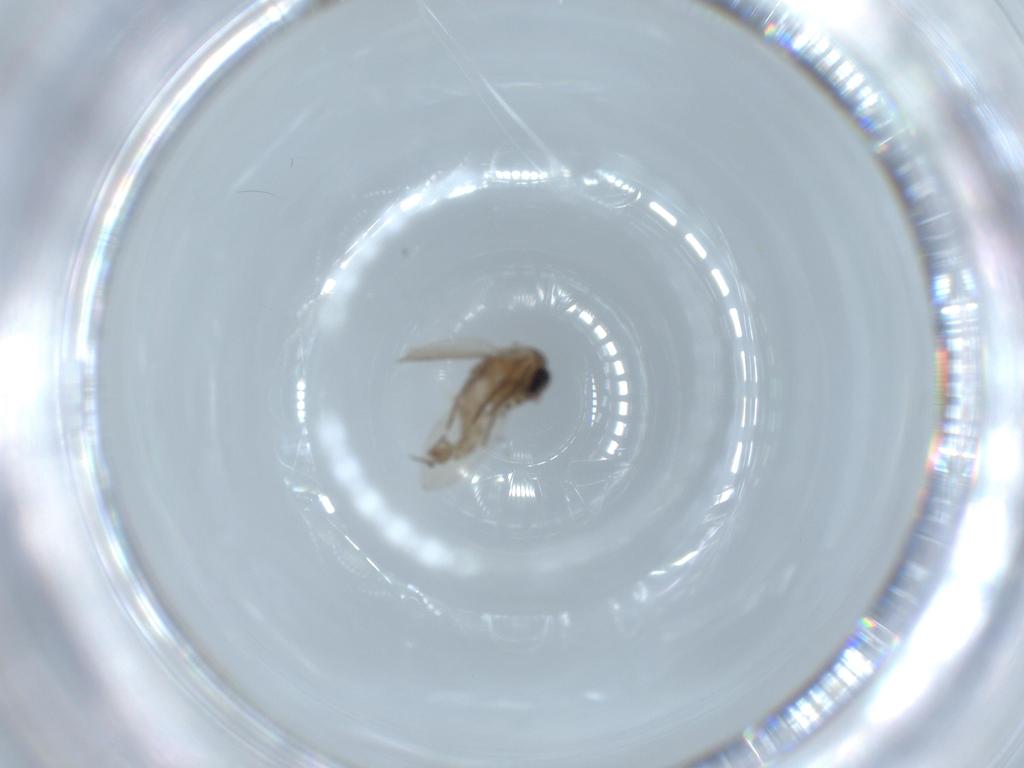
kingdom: Animalia
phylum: Arthropoda
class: Insecta
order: Diptera
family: Psychodidae
